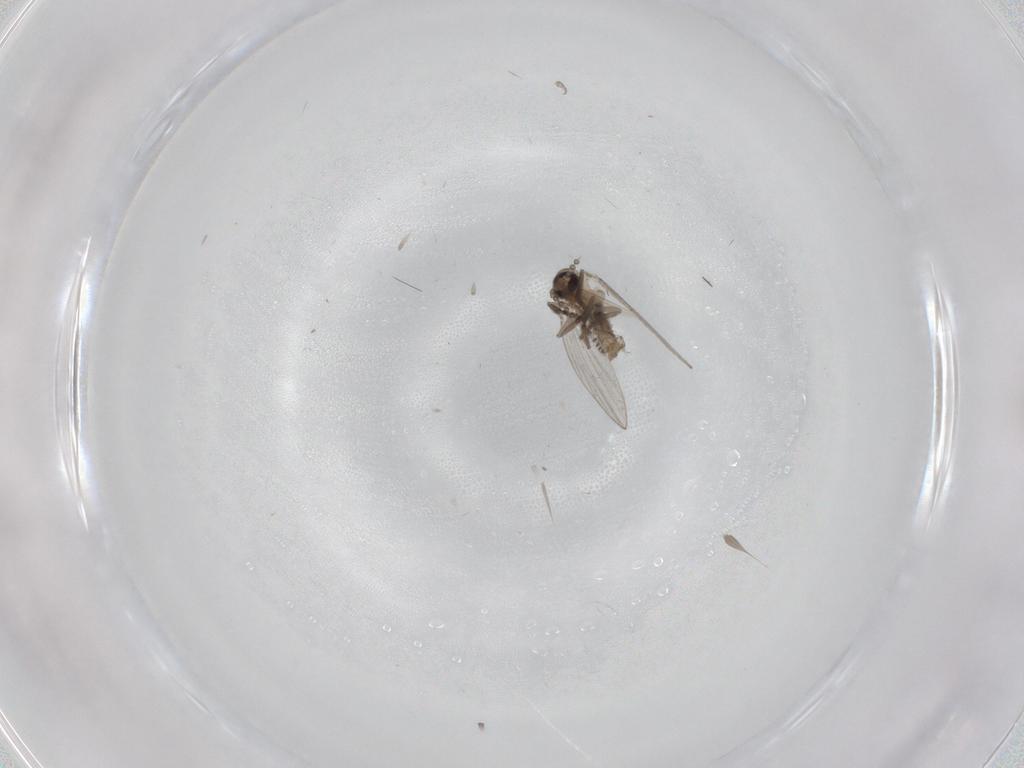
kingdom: Animalia
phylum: Arthropoda
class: Insecta
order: Diptera
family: Psychodidae
